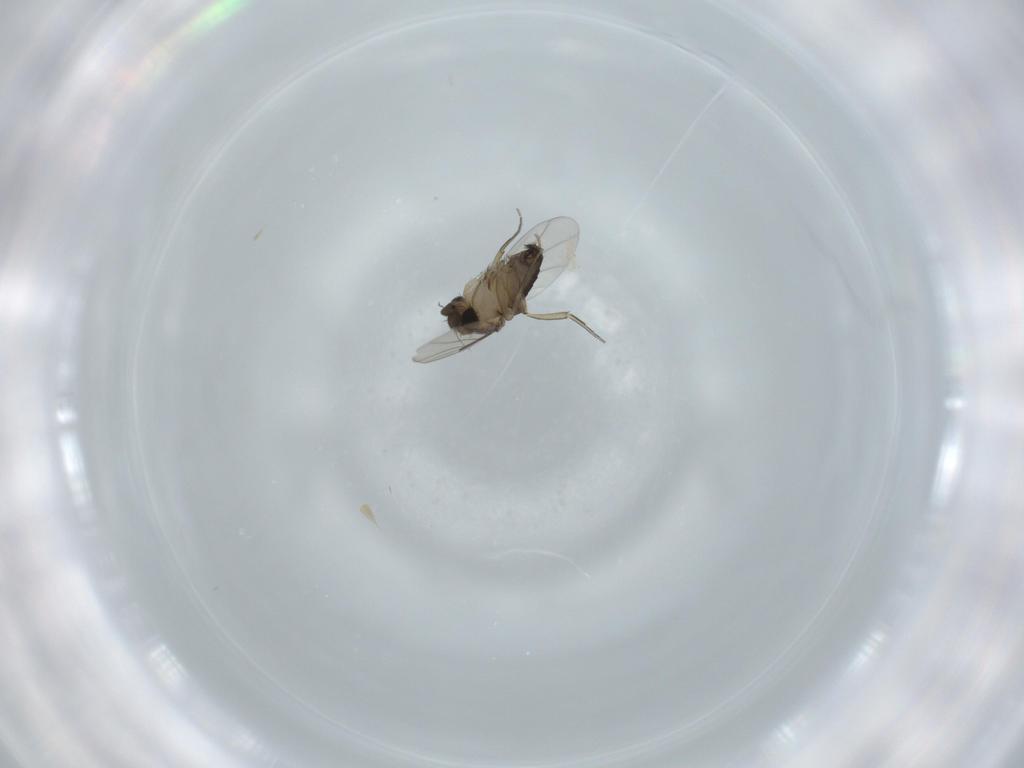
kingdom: Animalia
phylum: Arthropoda
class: Insecta
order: Diptera
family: Phoridae
